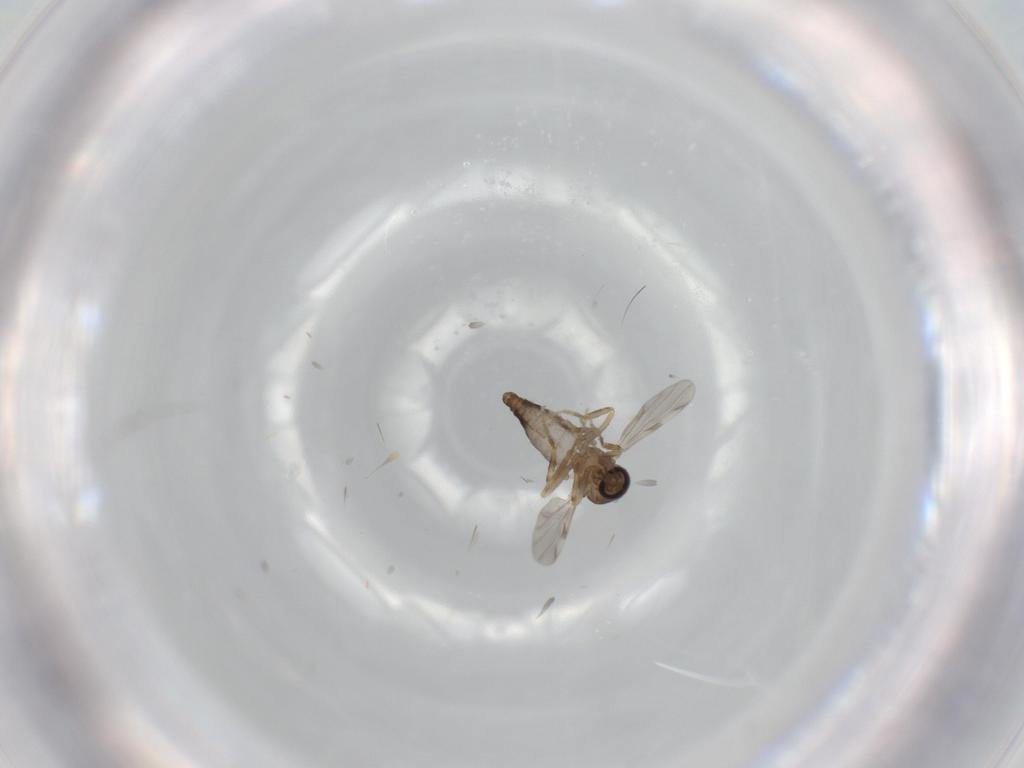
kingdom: Animalia
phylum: Arthropoda
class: Insecta
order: Diptera
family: Ceratopogonidae
